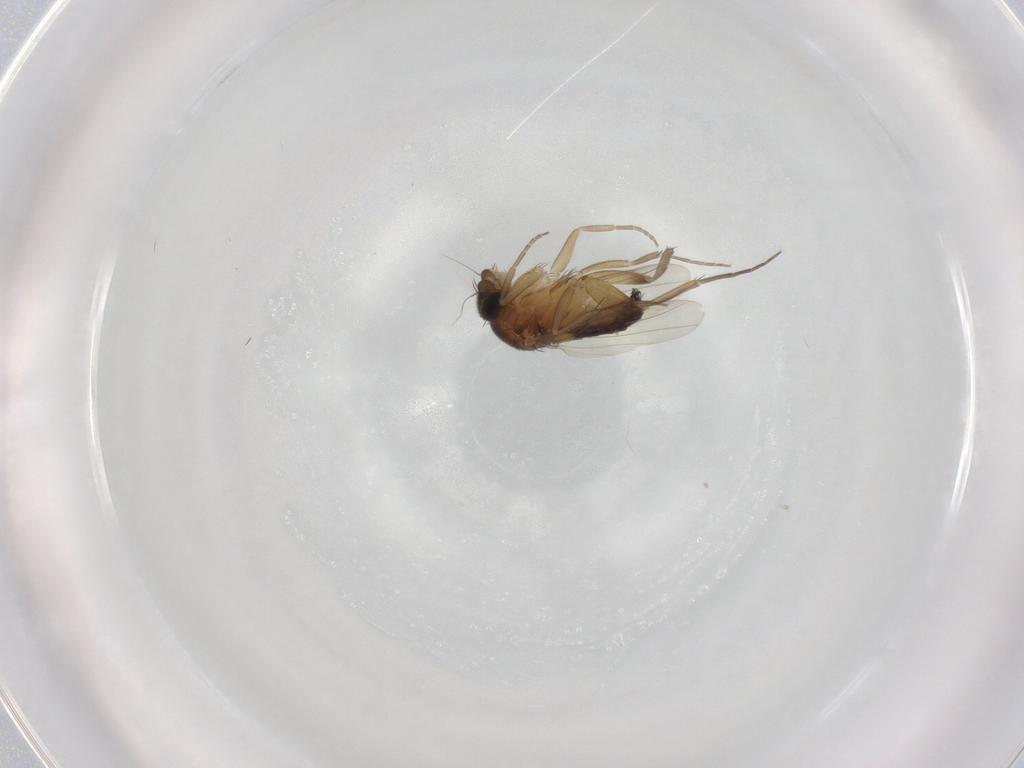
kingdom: Animalia
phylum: Arthropoda
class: Insecta
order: Diptera
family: Phoridae
